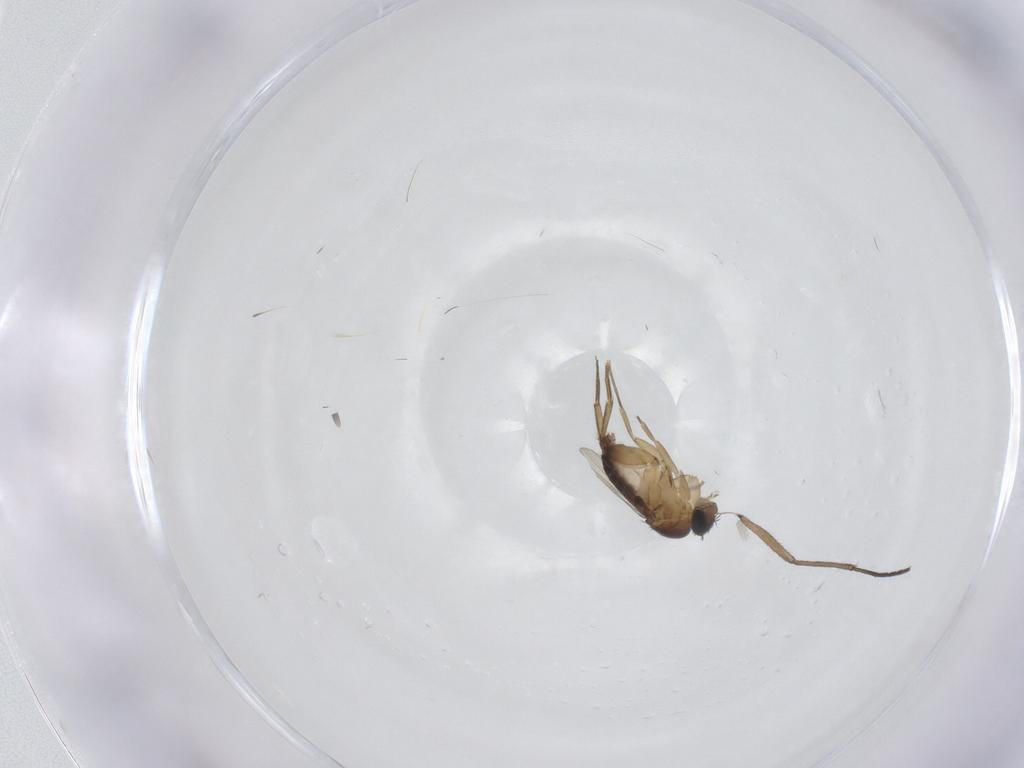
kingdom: Animalia
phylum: Arthropoda
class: Insecta
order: Diptera
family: Phoridae
